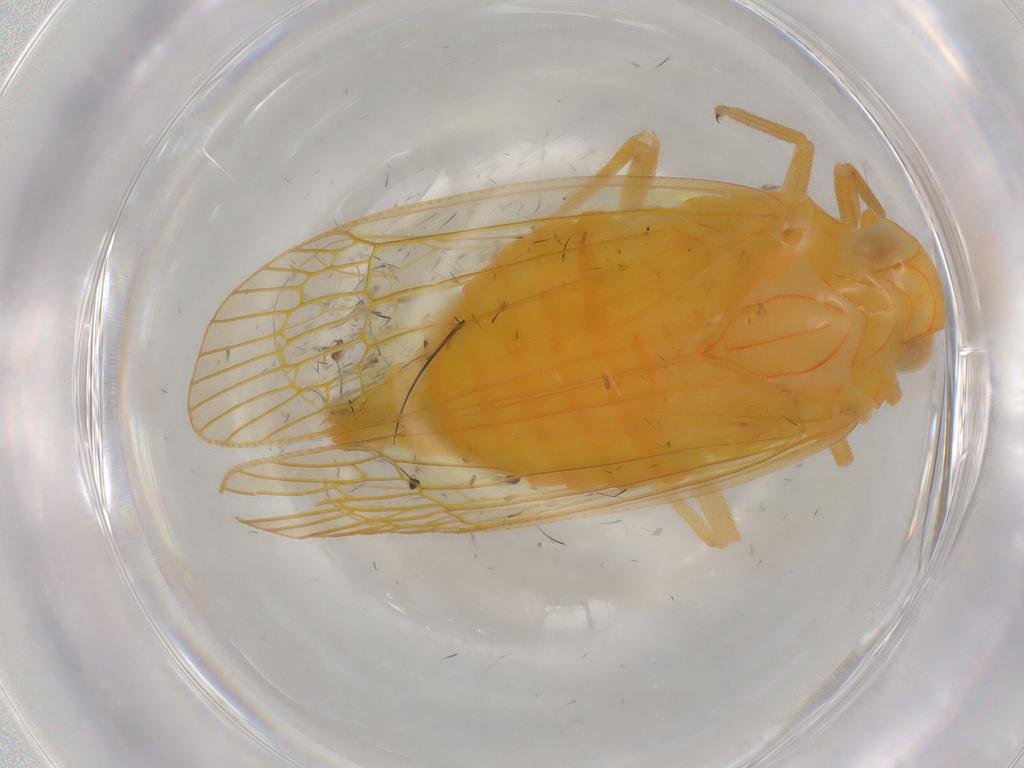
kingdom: Animalia
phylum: Arthropoda
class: Insecta
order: Hemiptera
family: Tropiduchidae
